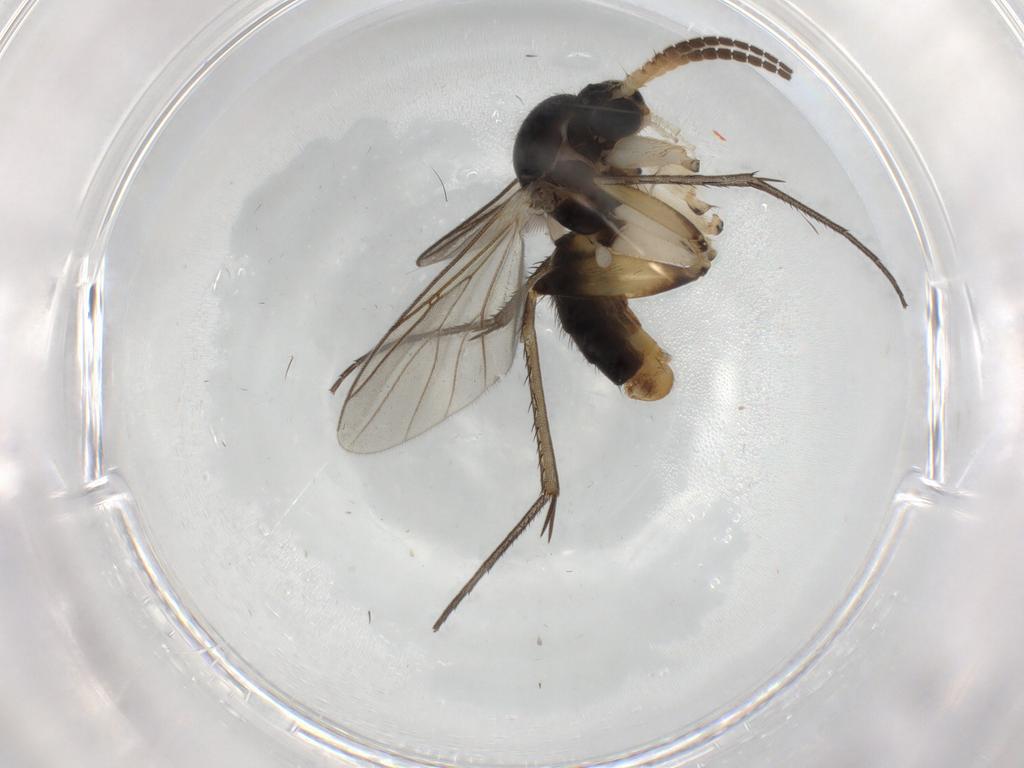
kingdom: Animalia
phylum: Arthropoda
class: Insecta
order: Diptera
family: Mycetophilidae
